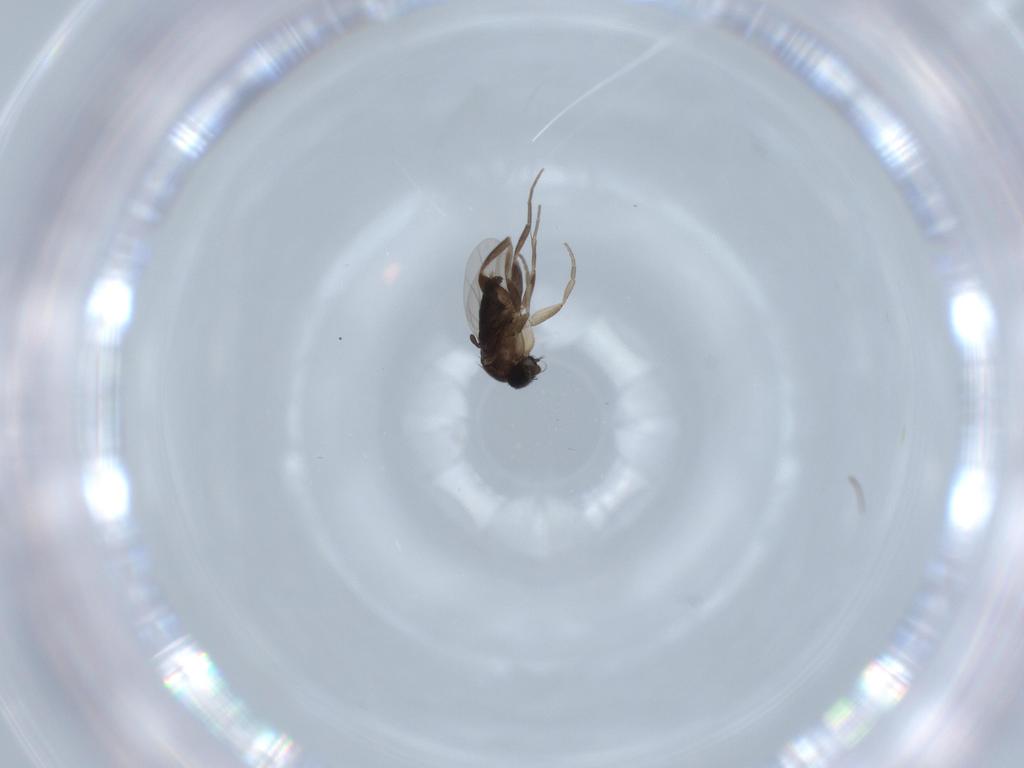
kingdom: Animalia
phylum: Arthropoda
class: Insecta
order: Diptera
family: Phoridae
